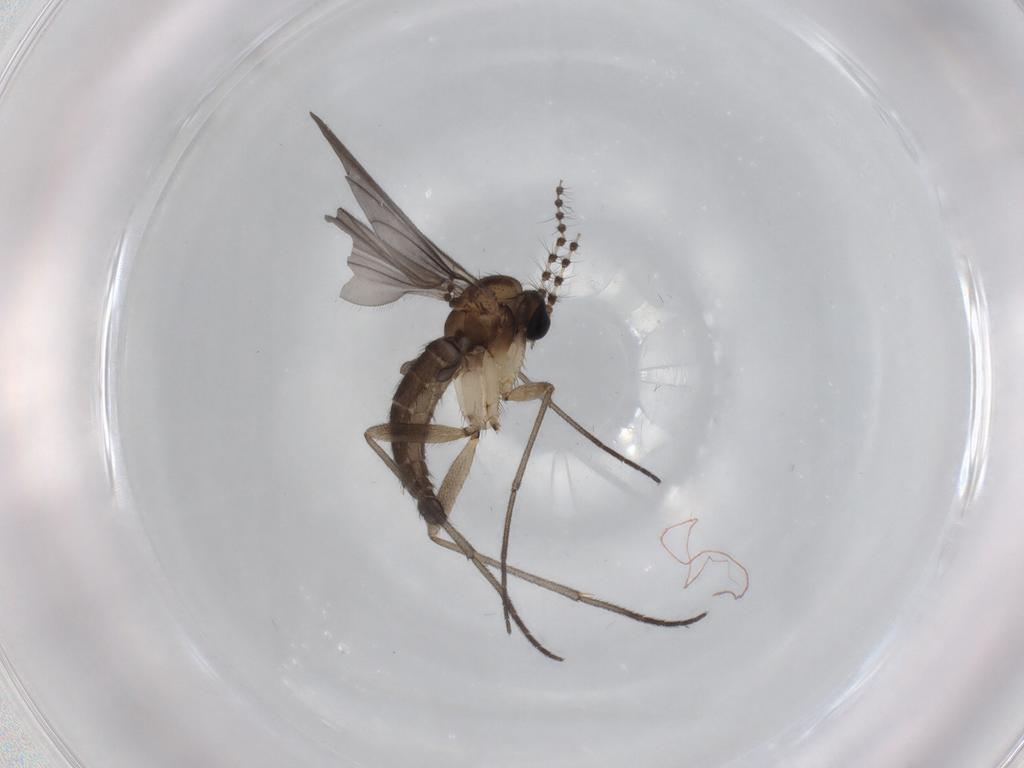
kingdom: Animalia
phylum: Arthropoda
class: Insecta
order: Diptera
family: Sciaridae
